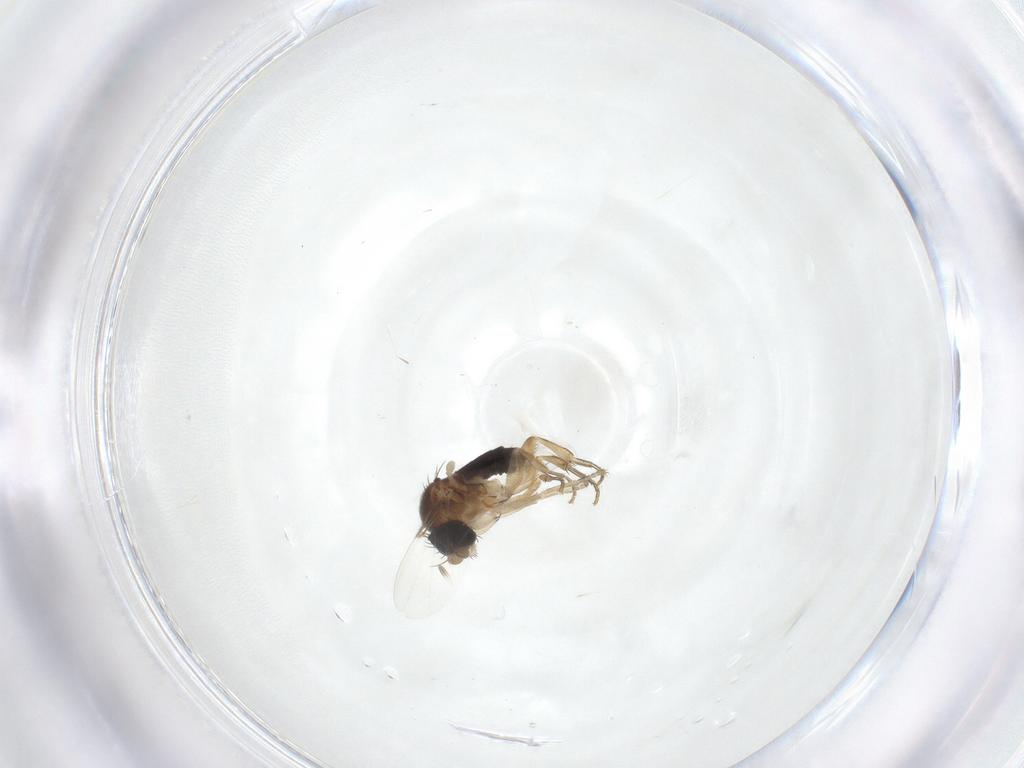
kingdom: Animalia
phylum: Arthropoda
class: Insecta
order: Diptera
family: Phoridae
